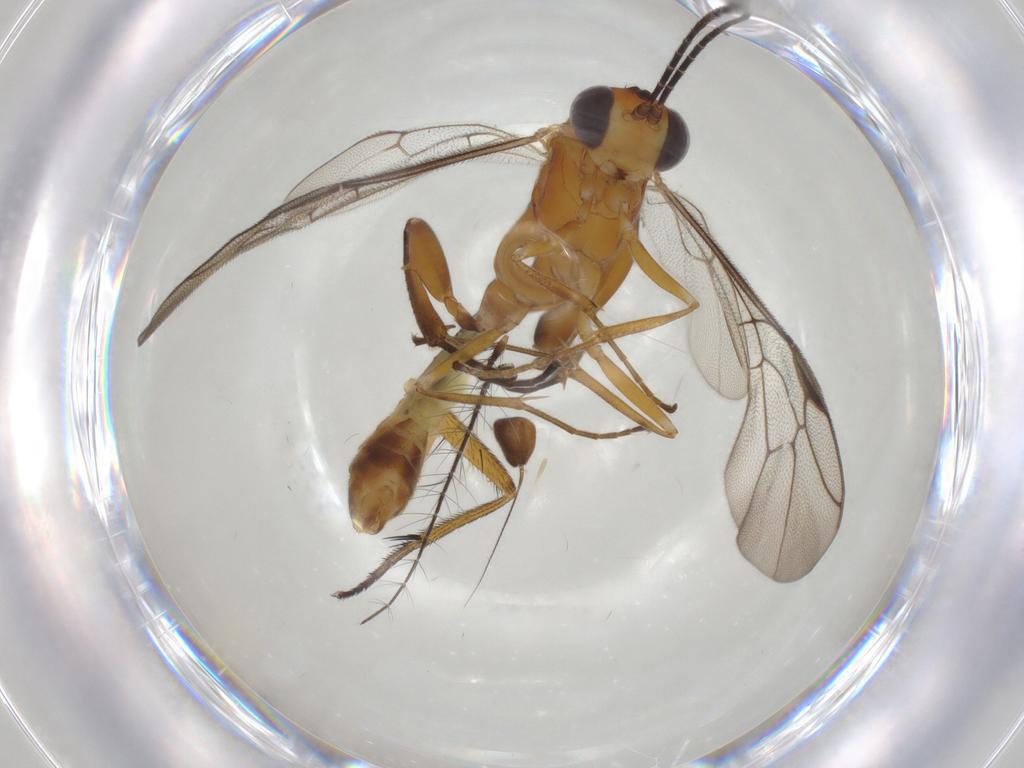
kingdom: Animalia
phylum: Arthropoda
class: Insecta
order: Hymenoptera
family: Ichneumonidae
